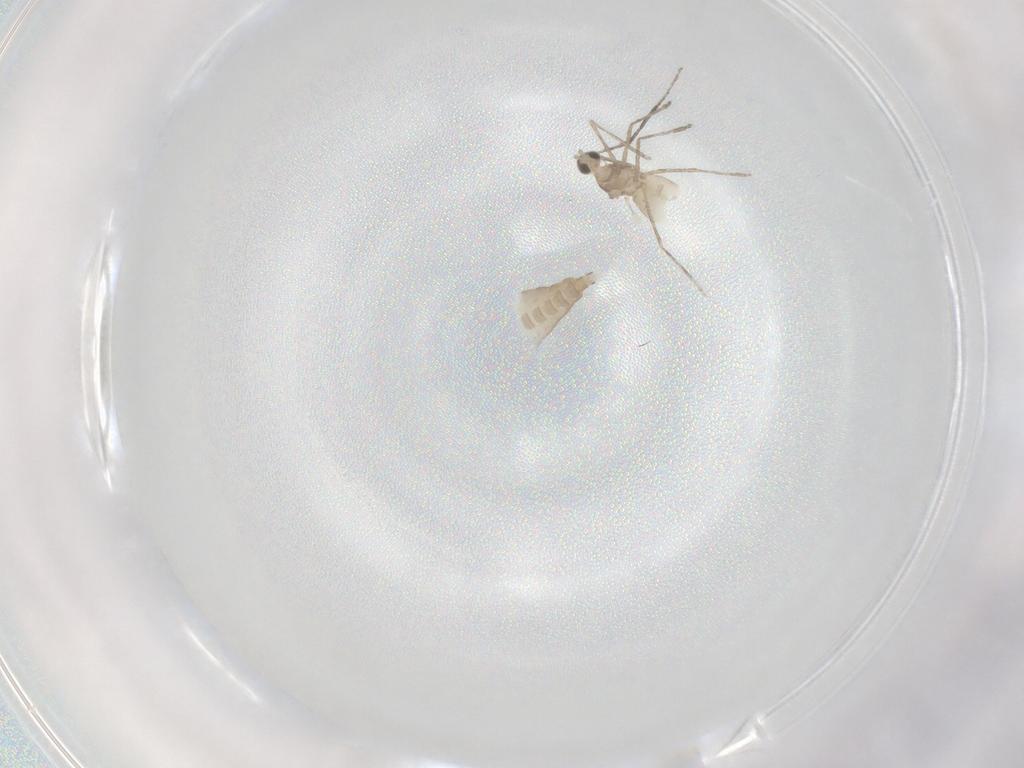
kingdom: Animalia
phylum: Arthropoda
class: Insecta
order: Diptera
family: Cecidomyiidae
